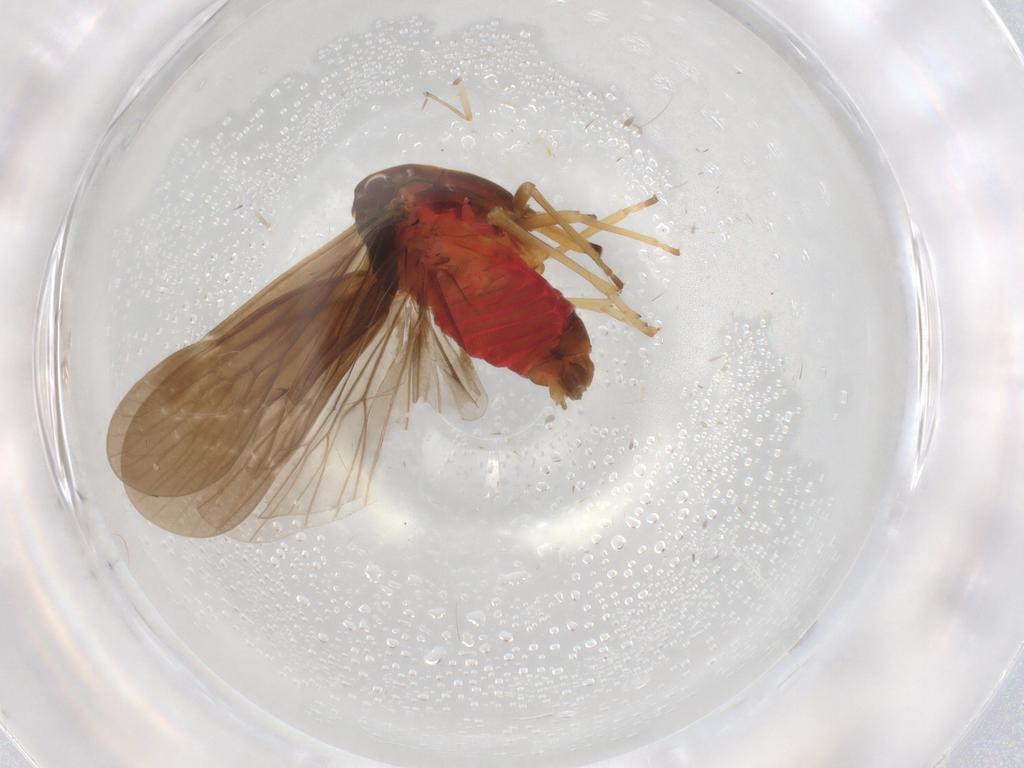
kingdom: Animalia
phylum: Arthropoda
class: Insecta
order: Hemiptera
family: Derbidae
